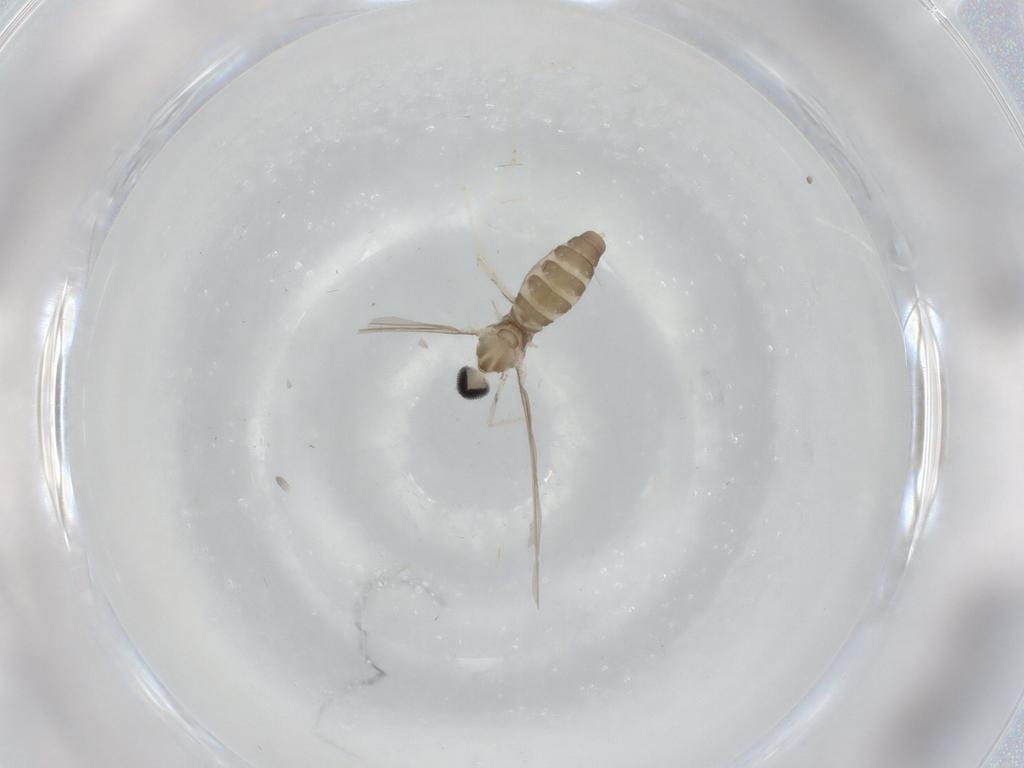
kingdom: Animalia
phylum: Arthropoda
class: Insecta
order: Diptera
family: Cecidomyiidae
